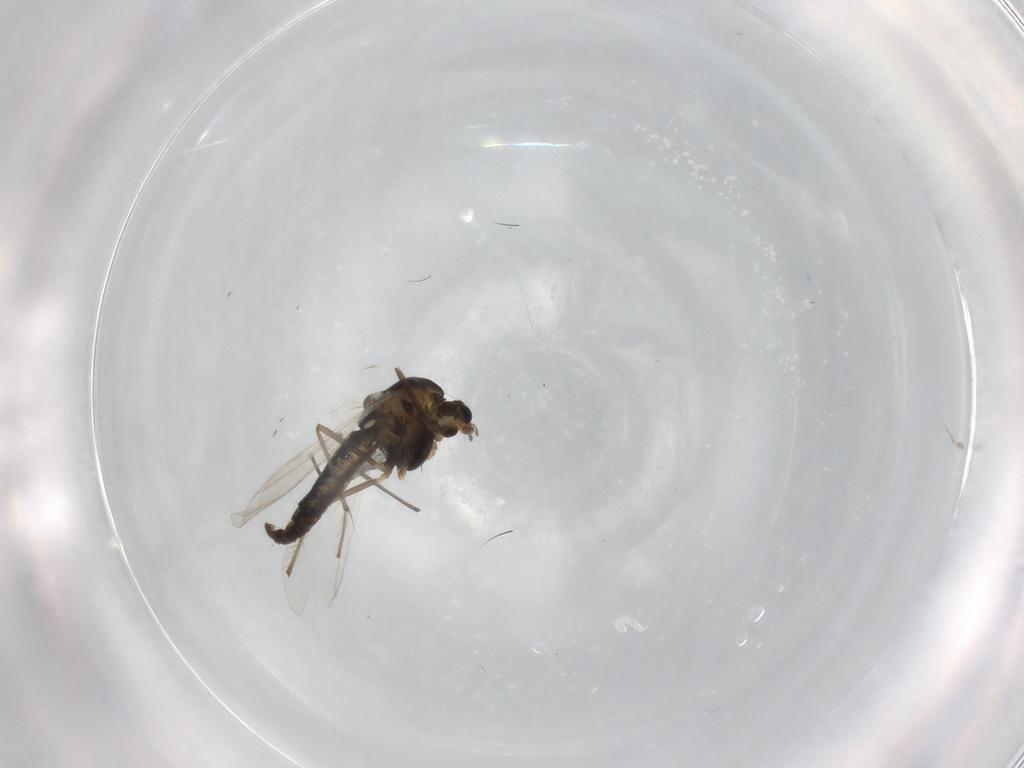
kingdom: Animalia
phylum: Arthropoda
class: Insecta
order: Diptera
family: Chironomidae
